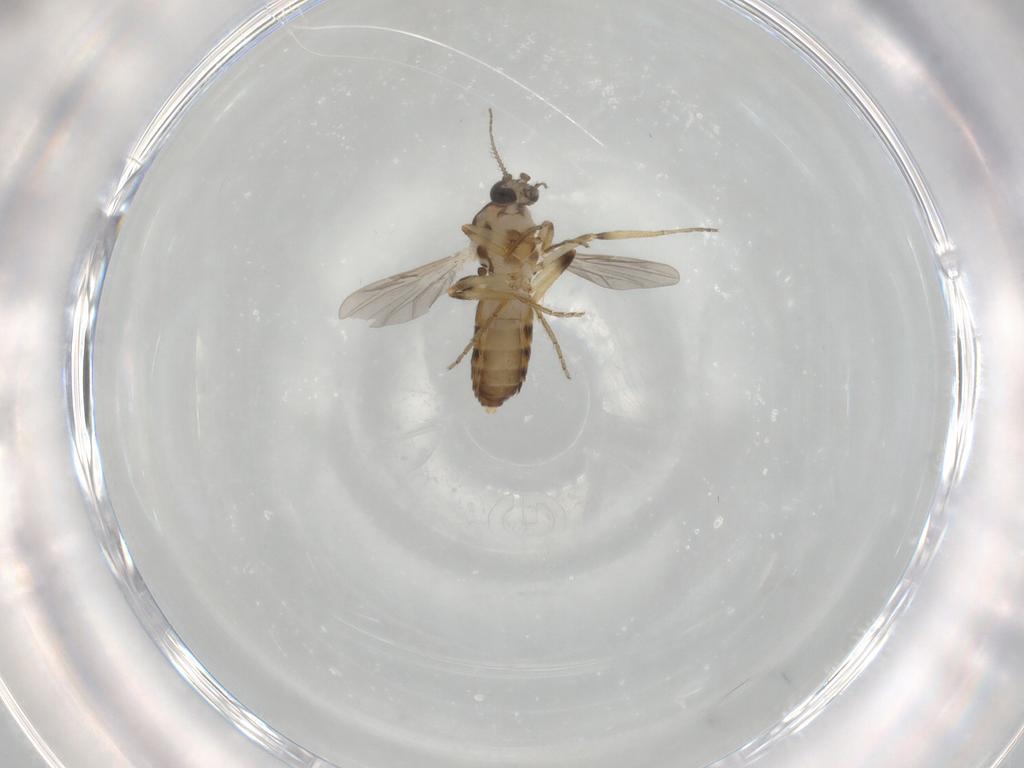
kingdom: Animalia
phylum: Arthropoda
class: Insecta
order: Diptera
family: Ceratopogonidae
